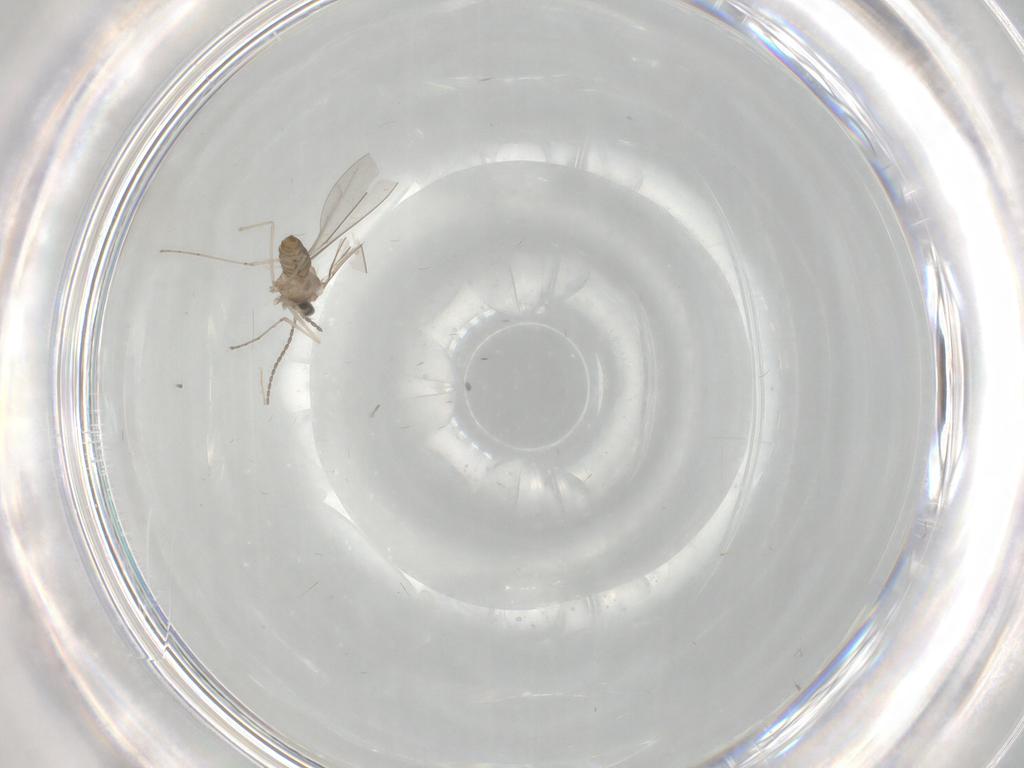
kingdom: Animalia
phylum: Arthropoda
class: Insecta
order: Diptera
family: Cecidomyiidae
